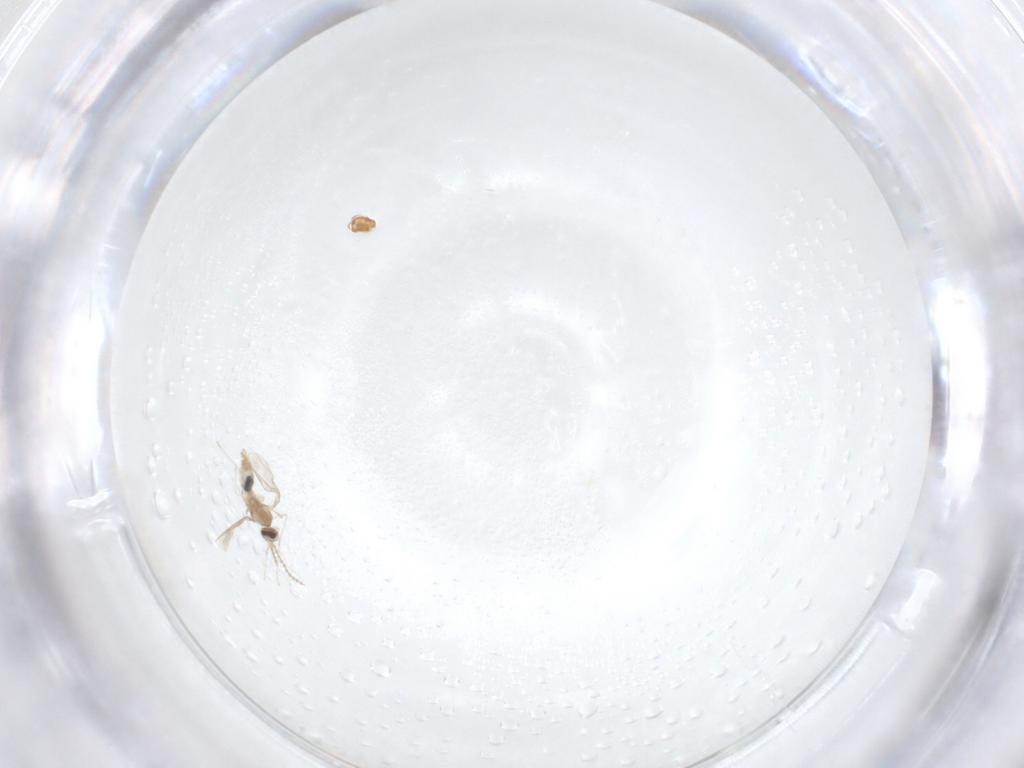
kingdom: Animalia
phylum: Arthropoda
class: Insecta
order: Diptera
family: Cecidomyiidae
